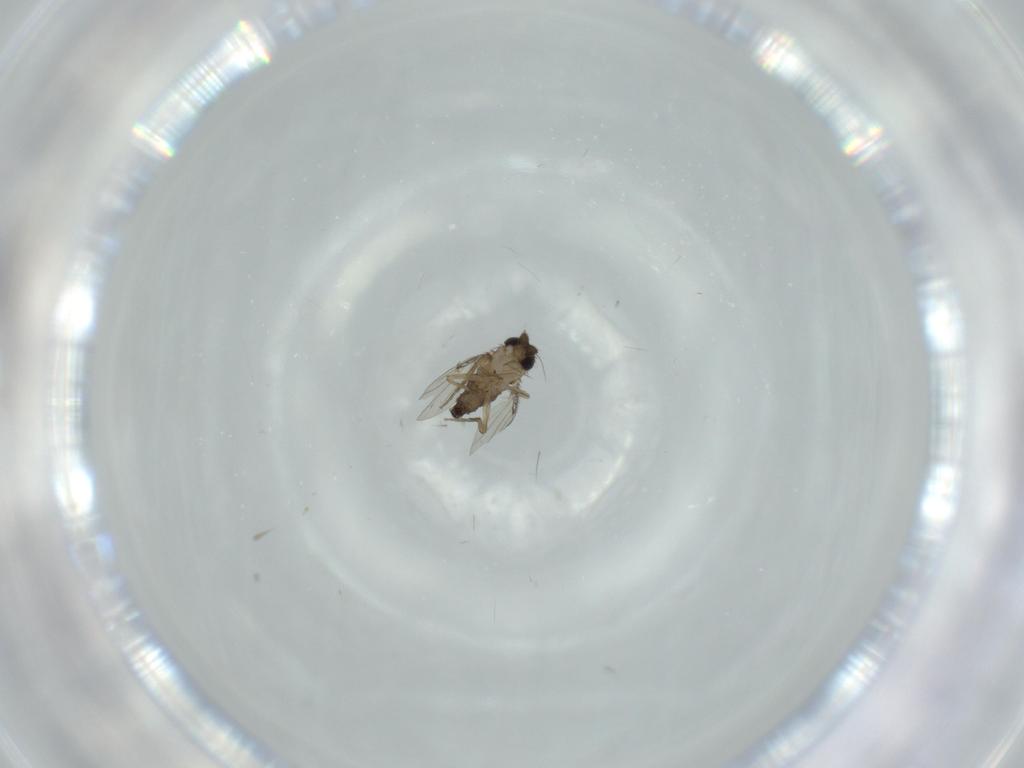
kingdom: Animalia
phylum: Arthropoda
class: Insecta
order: Diptera
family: Phoridae
